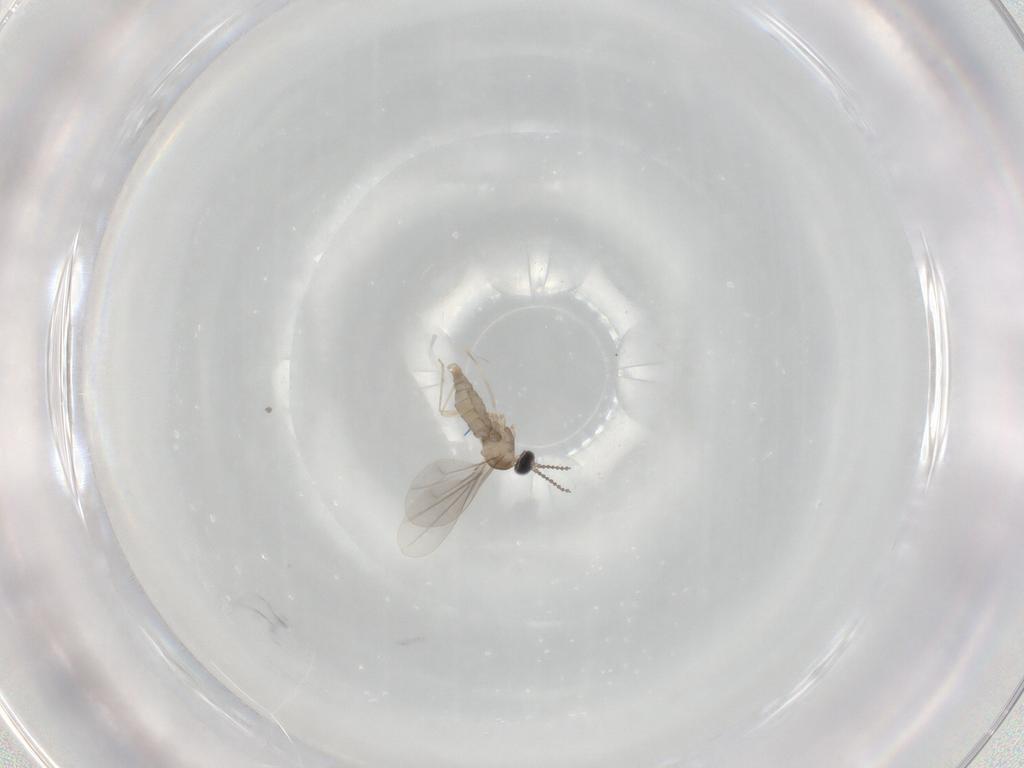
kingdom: Animalia
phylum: Arthropoda
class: Insecta
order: Diptera
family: Cecidomyiidae
